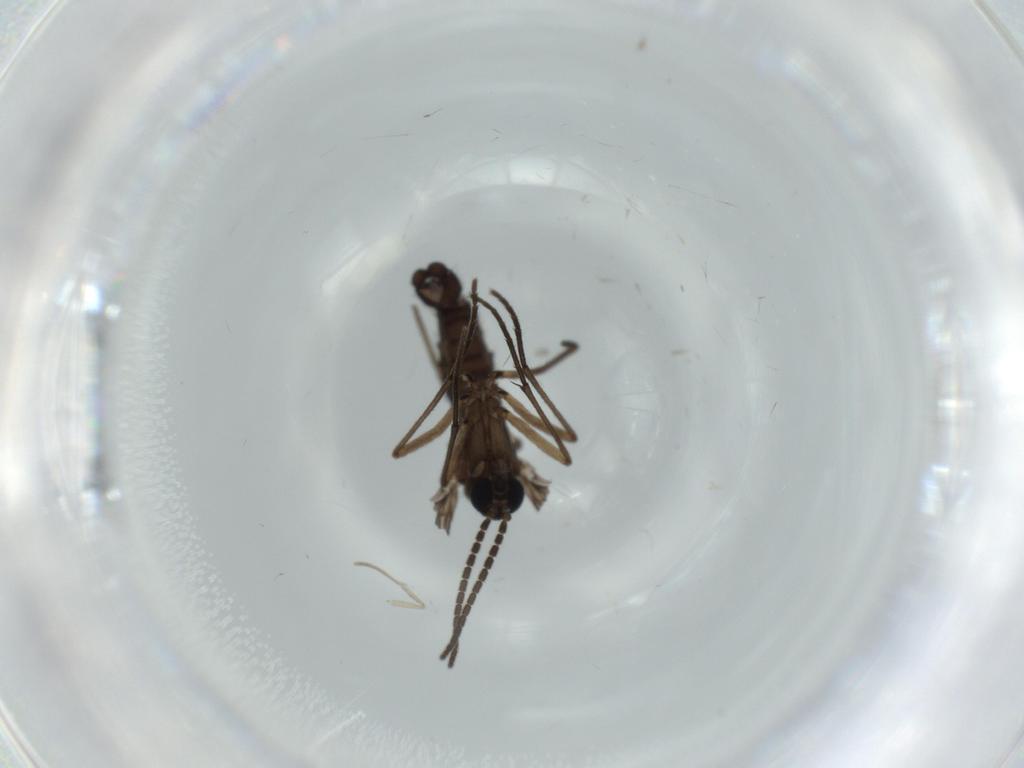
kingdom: Animalia
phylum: Arthropoda
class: Insecta
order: Diptera
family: Sciaridae
